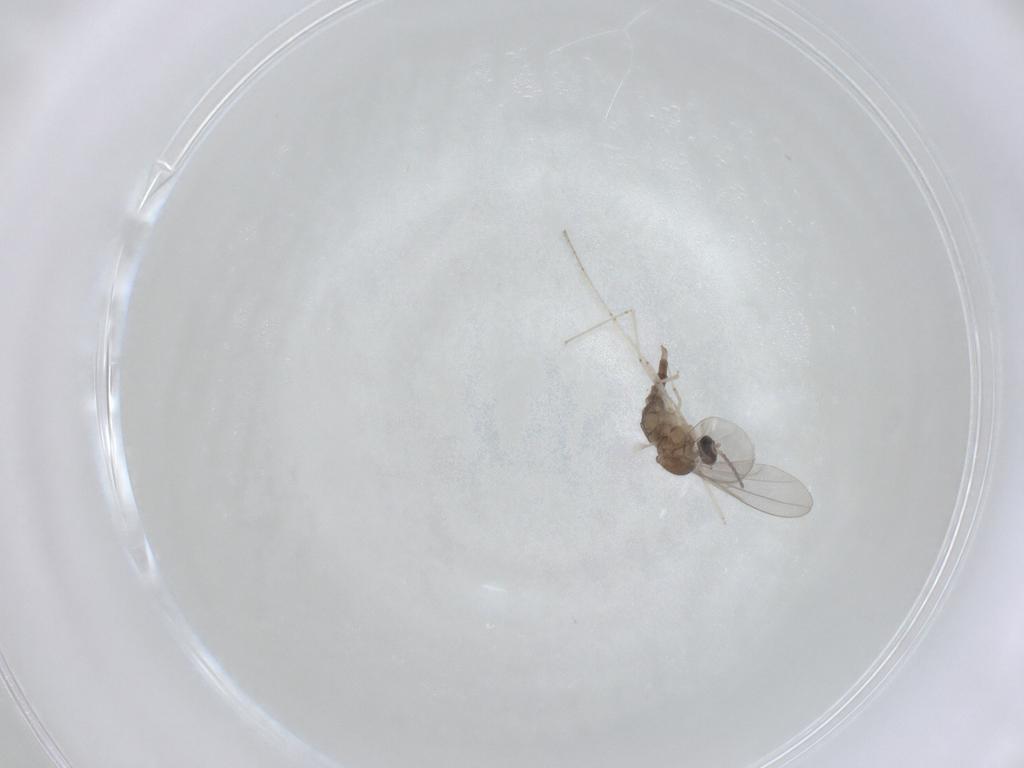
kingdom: Animalia
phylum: Arthropoda
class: Insecta
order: Diptera
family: Cecidomyiidae
